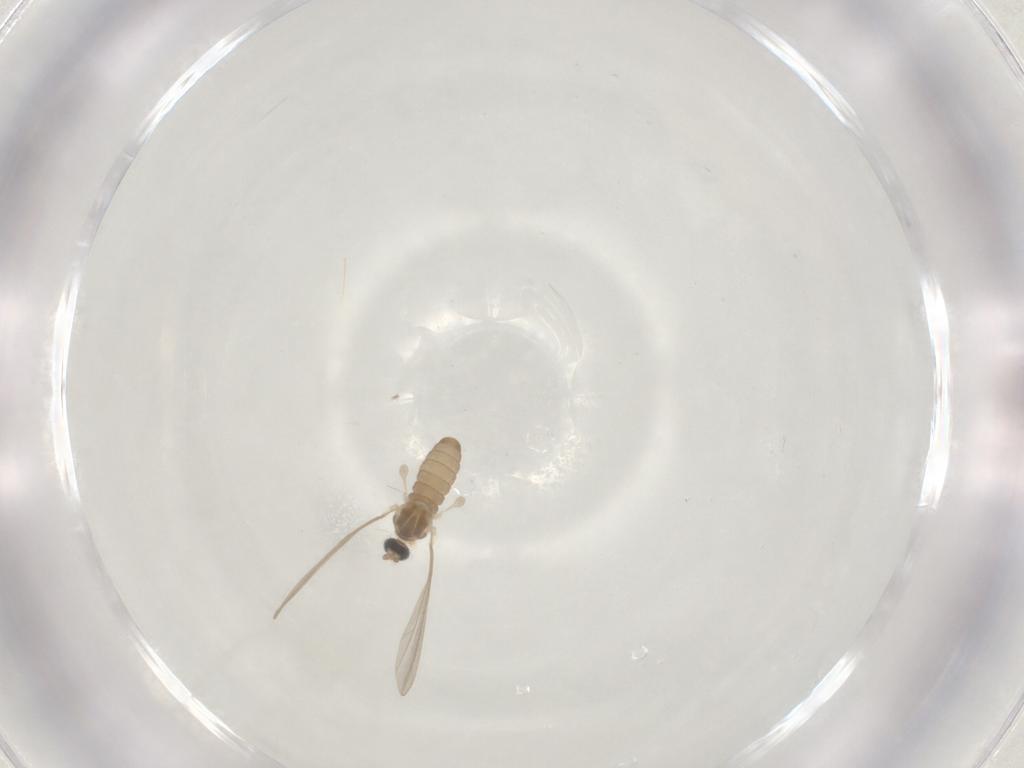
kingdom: Animalia
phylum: Arthropoda
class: Insecta
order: Diptera
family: Cecidomyiidae
